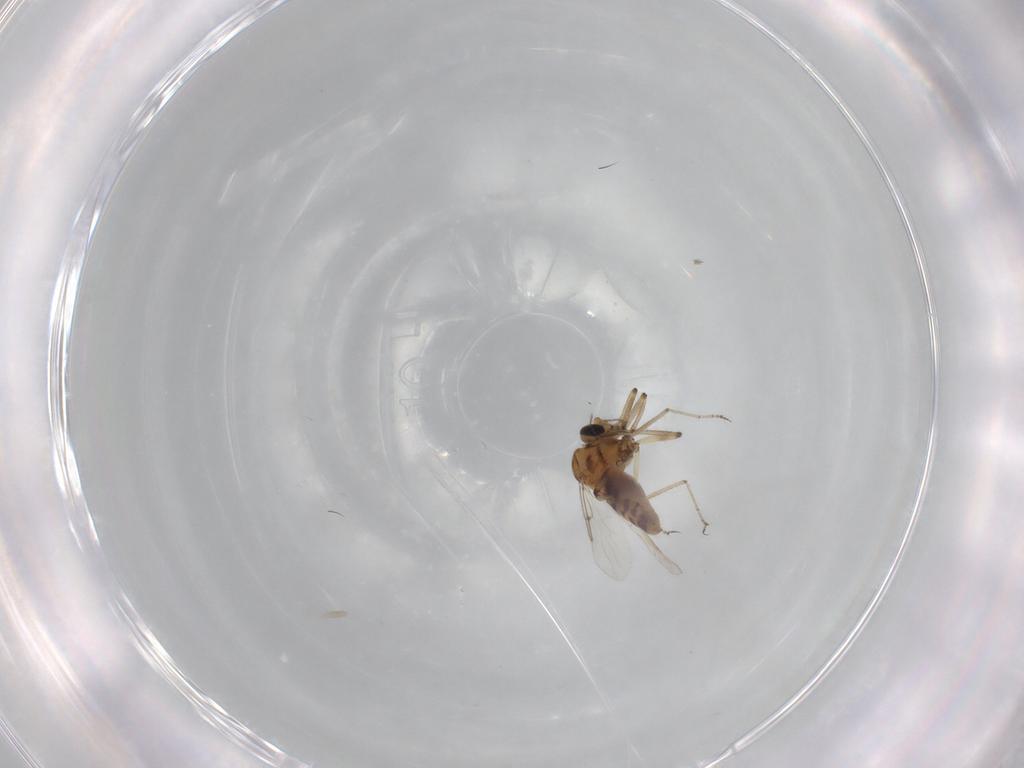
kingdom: Animalia
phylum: Arthropoda
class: Insecta
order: Diptera
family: Ceratopogonidae
